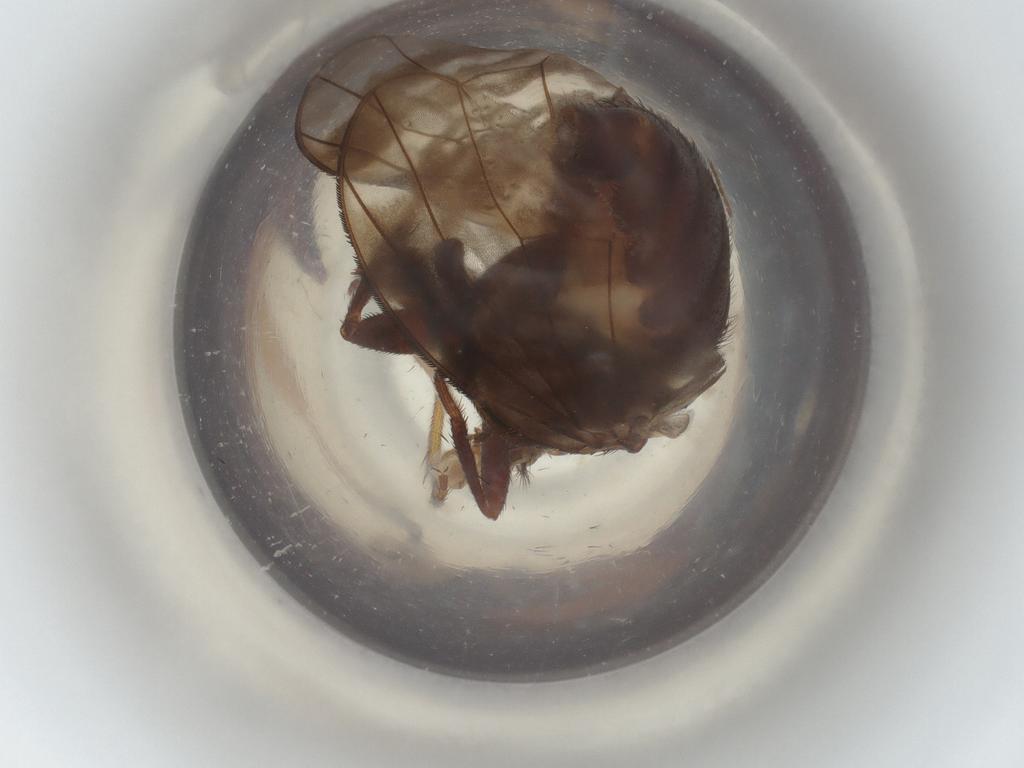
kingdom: Animalia
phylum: Arthropoda
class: Insecta
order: Diptera
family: Lauxaniidae
